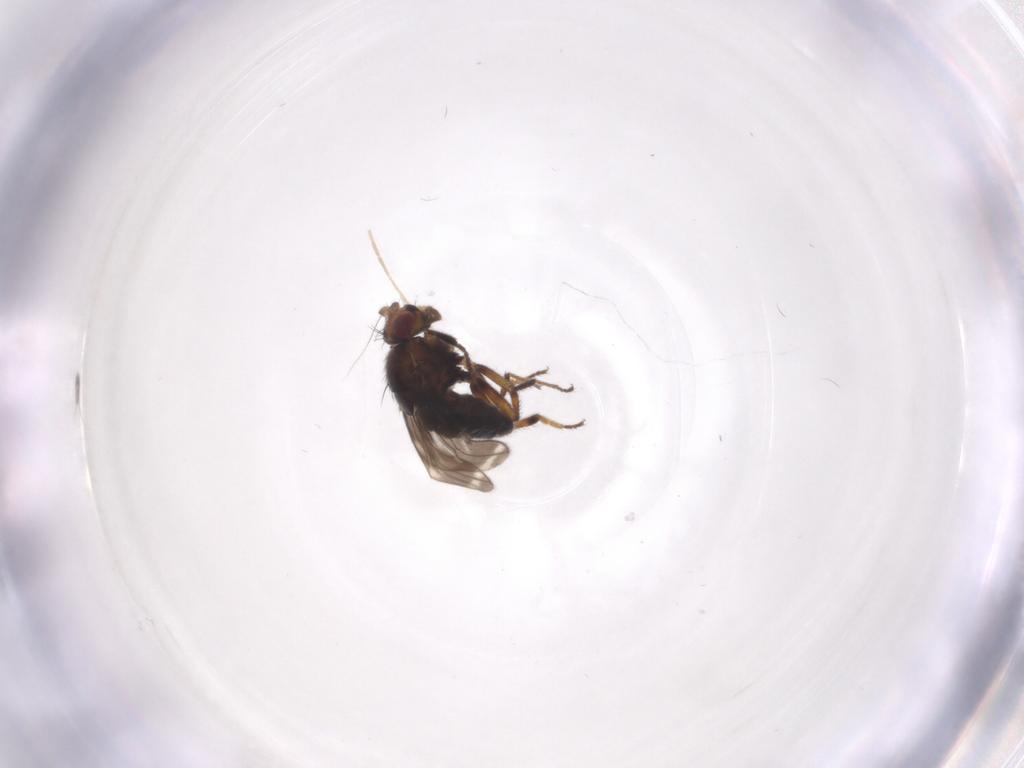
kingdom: Animalia
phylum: Arthropoda
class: Insecta
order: Diptera
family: Sphaeroceridae
